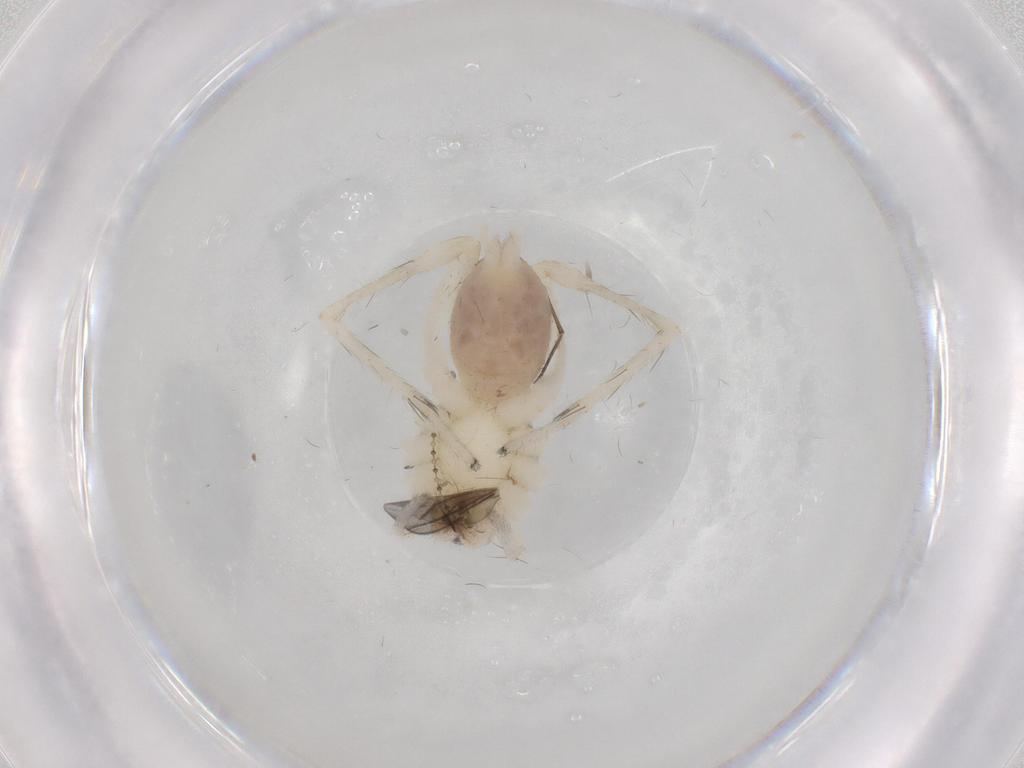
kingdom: Animalia
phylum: Arthropoda
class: Arachnida
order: Araneae
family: Anyphaenidae
